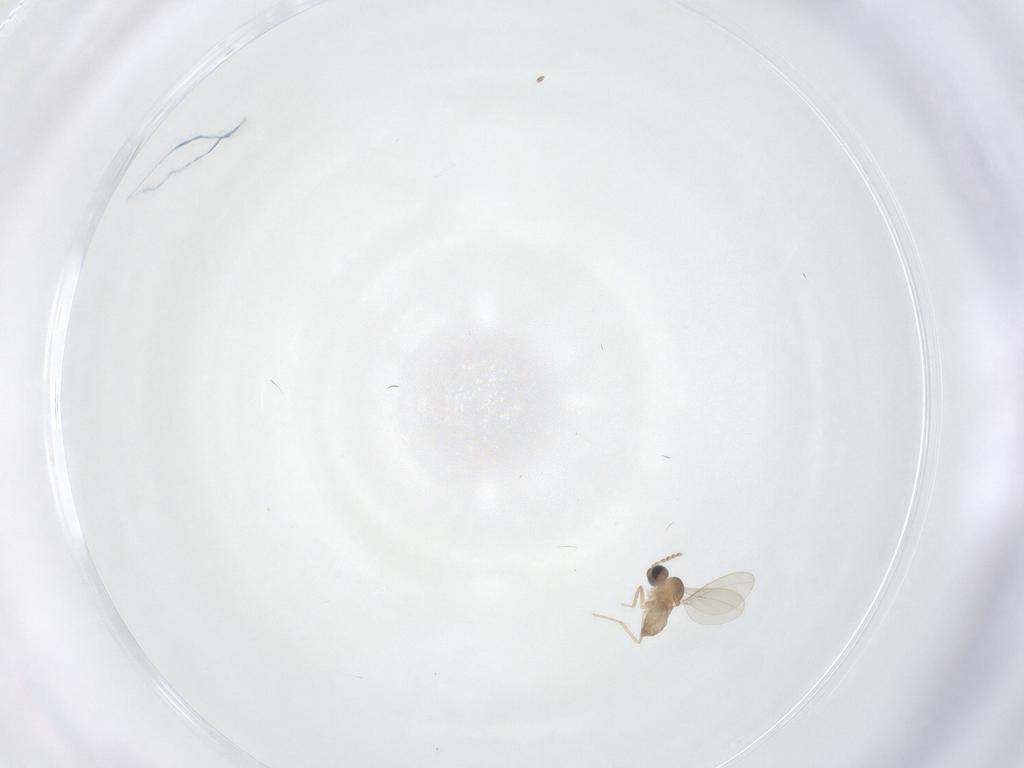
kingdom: Animalia
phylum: Arthropoda
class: Insecta
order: Diptera
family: Cecidomyiidae
